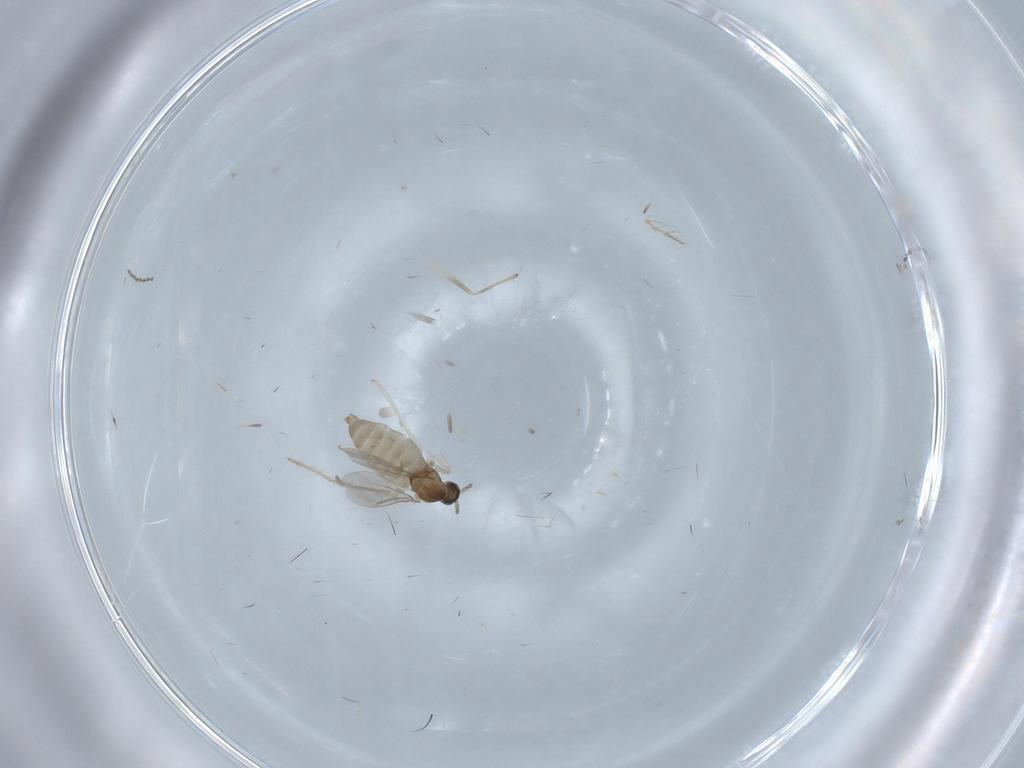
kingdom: Animalia
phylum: Arthropoda
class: Insecta
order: Diptera
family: Cecidomyiidae
